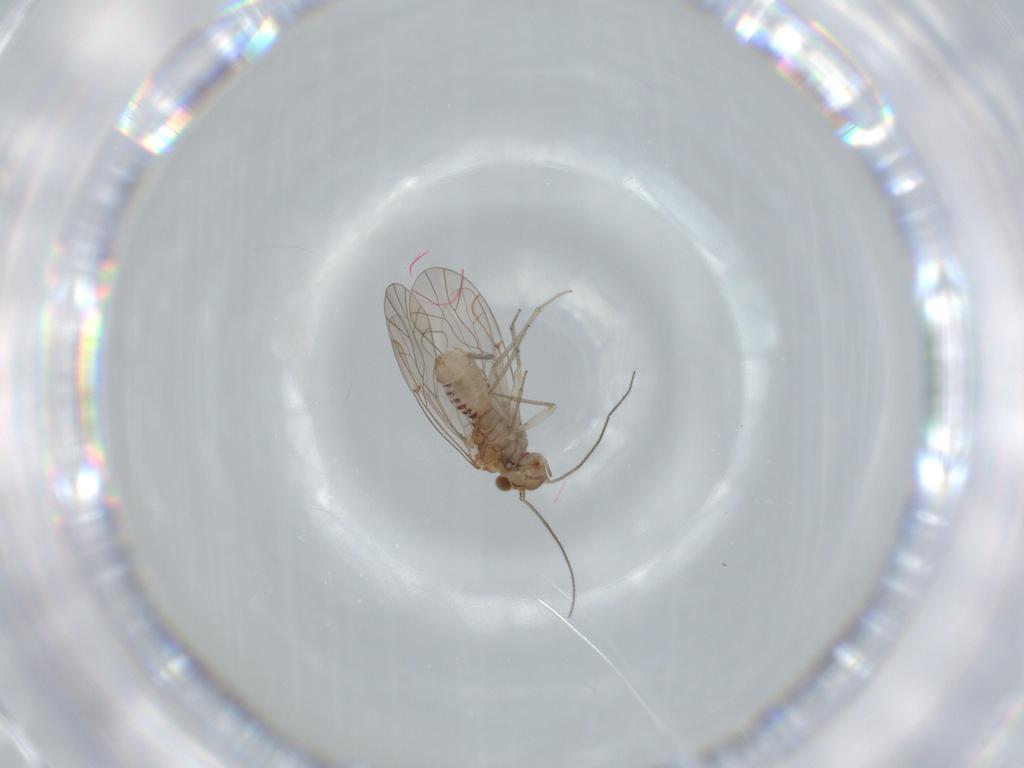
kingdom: Animalia
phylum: Arthropoda
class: Insecta
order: Psocodea
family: Lachesillidae
